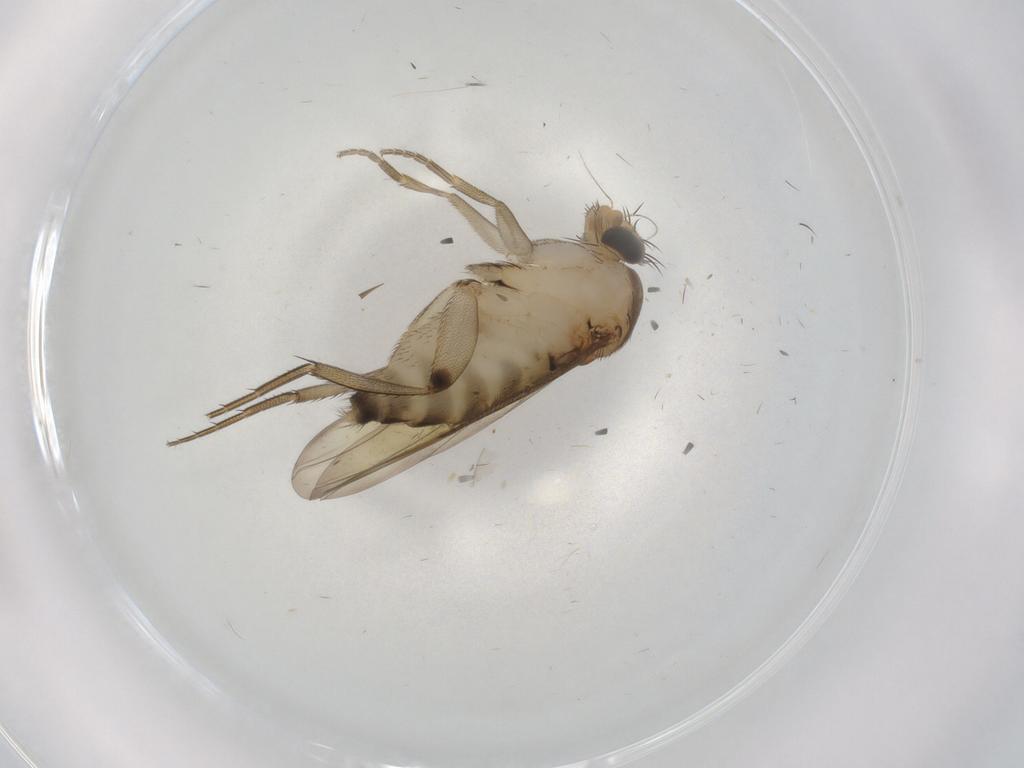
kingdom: Animalia
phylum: Arthropoda
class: Insecta
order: Diptera
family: Phoridae
